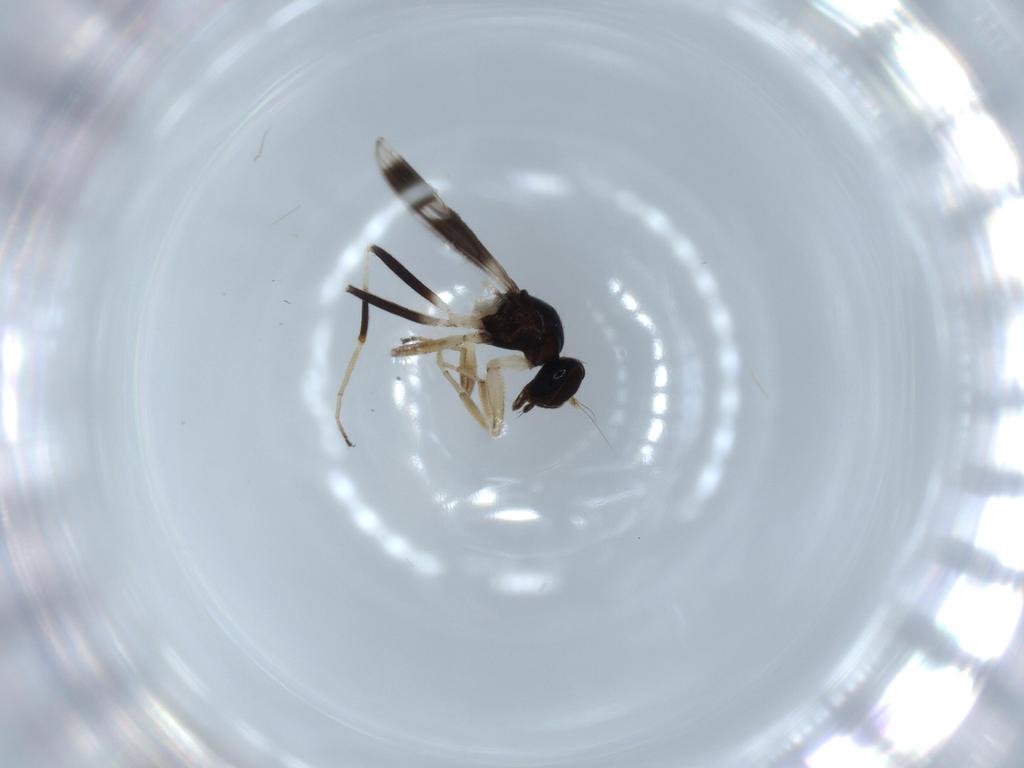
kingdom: Animalia
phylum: Arthropoda
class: Insecta
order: Diptera
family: Hybotidae
